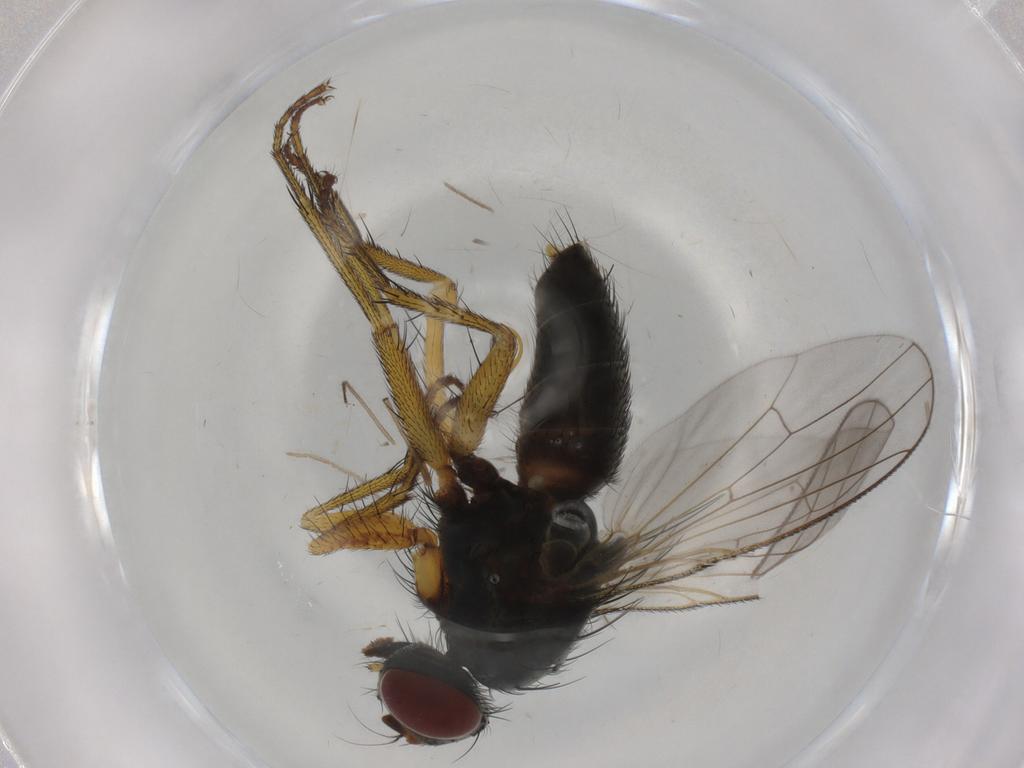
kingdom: Animalia
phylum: Arthropoda
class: Insecta
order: Diptera
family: Muscidae
